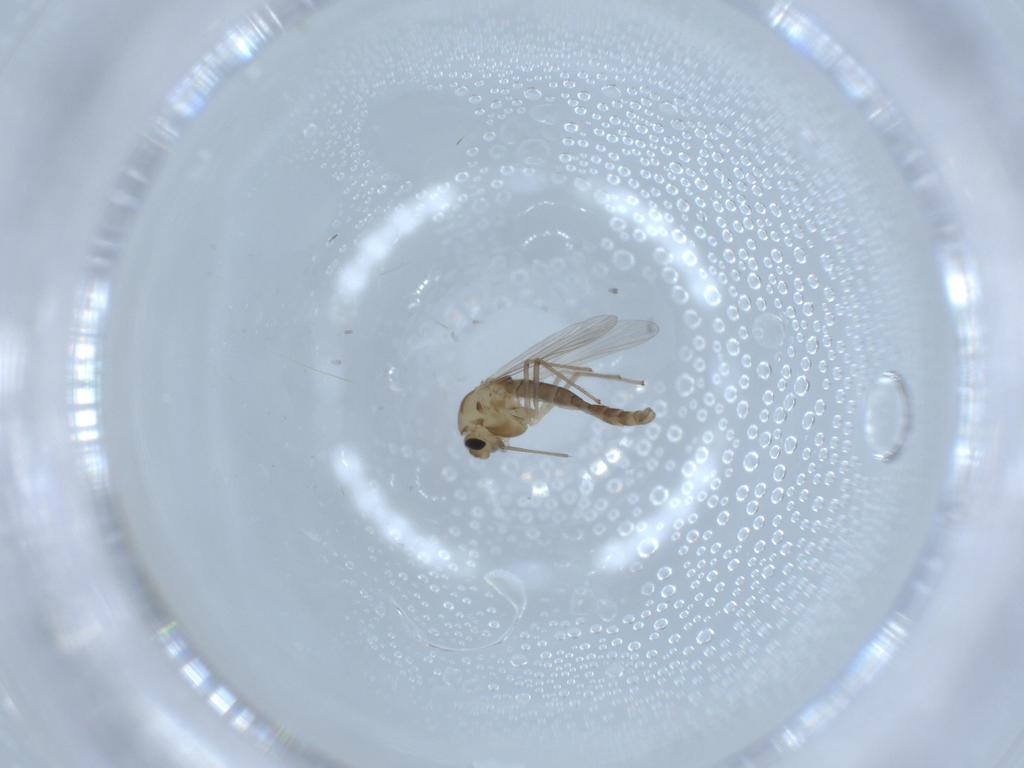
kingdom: Animalia
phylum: Arthropoda
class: Insecta
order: Diptera
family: Chironomidae
